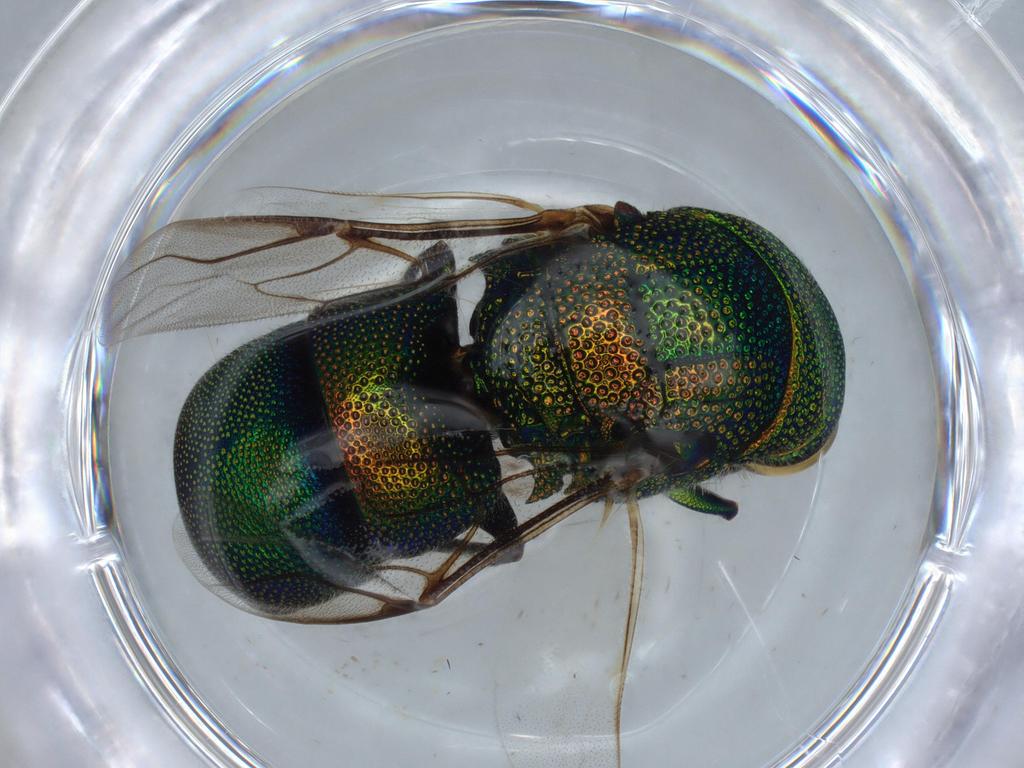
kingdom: Animalia
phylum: Arthropoda
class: Insecta
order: Hymenoptera
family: Chrysididae
